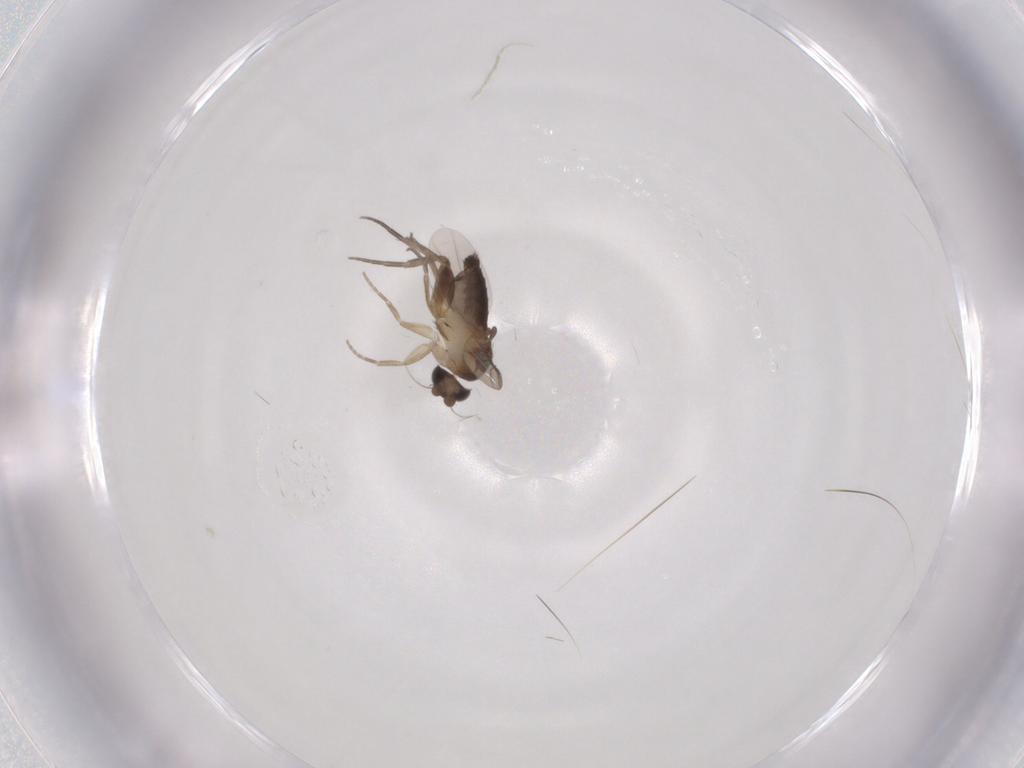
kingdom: Animalia
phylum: Arthropoda
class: Insecta
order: Diptera
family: Phoridae
